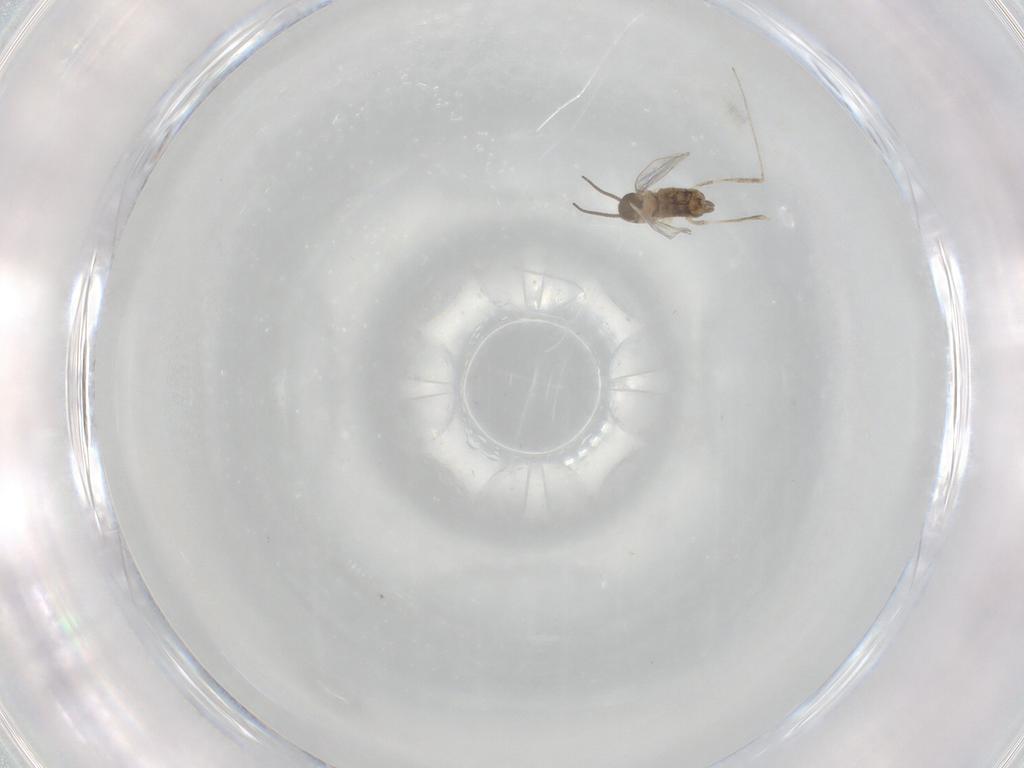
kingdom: Animalia
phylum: Arthropoda
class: Insecta
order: Diptera
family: Cecidomyiidae
